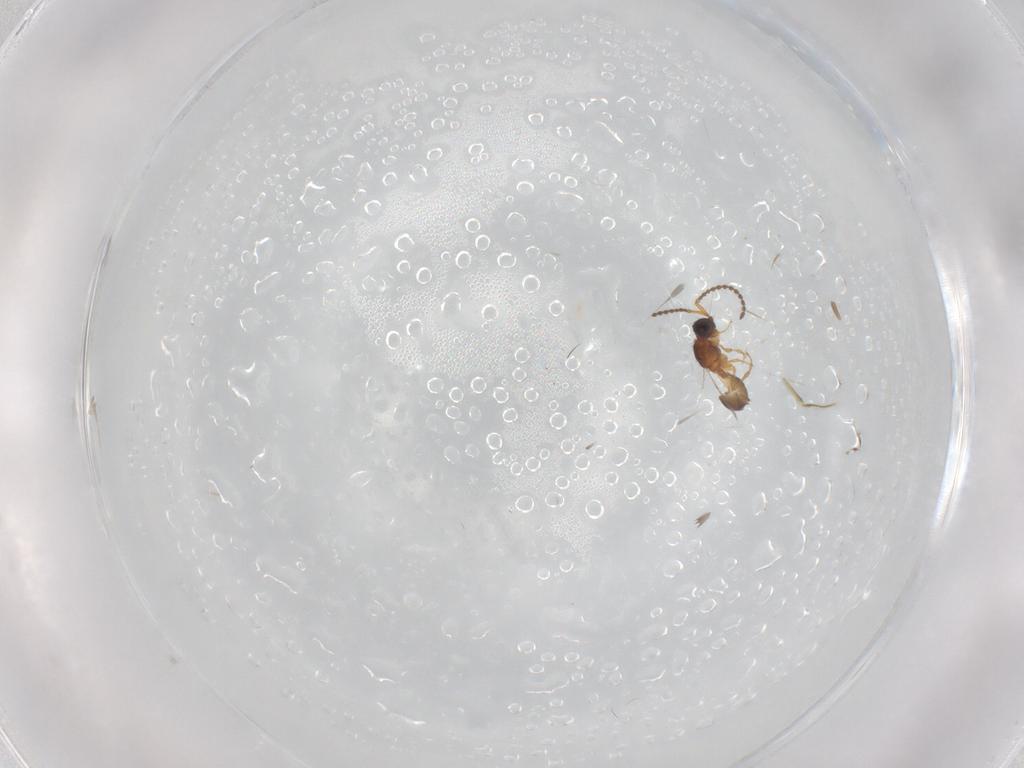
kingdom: Animalia
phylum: Arthropoda
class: Insecta
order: Hymenoptera
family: Diapriidae
